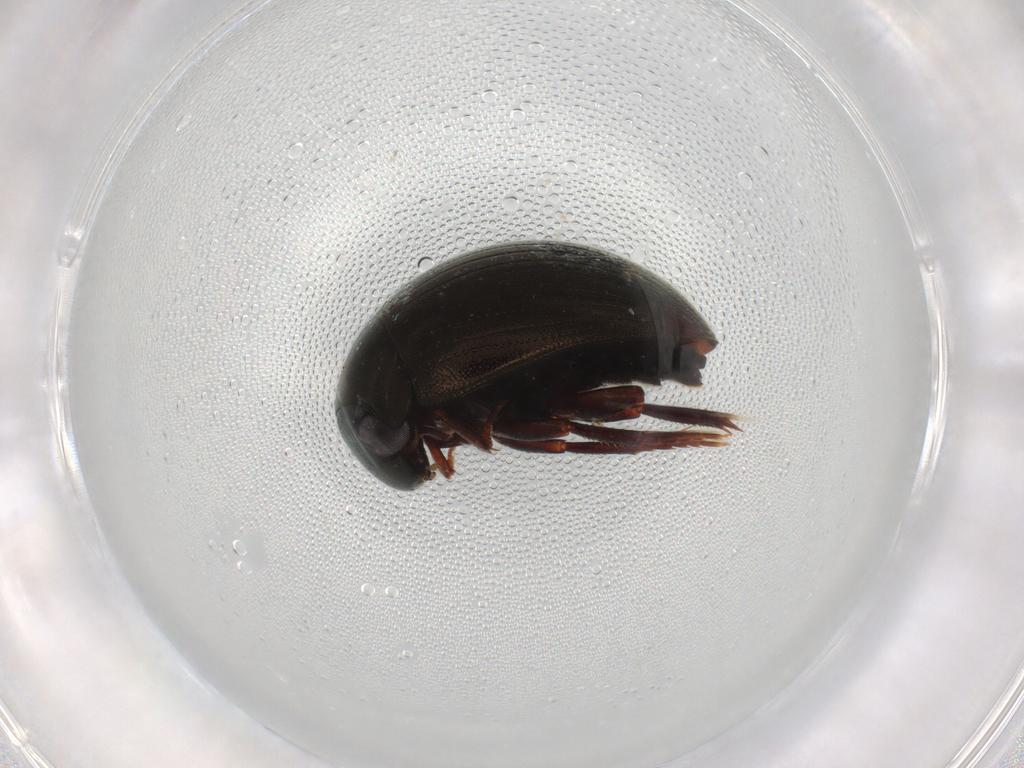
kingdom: Animalia
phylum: Arthropoda
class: Insecta
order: Coleoptera
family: Hydrophilidae
